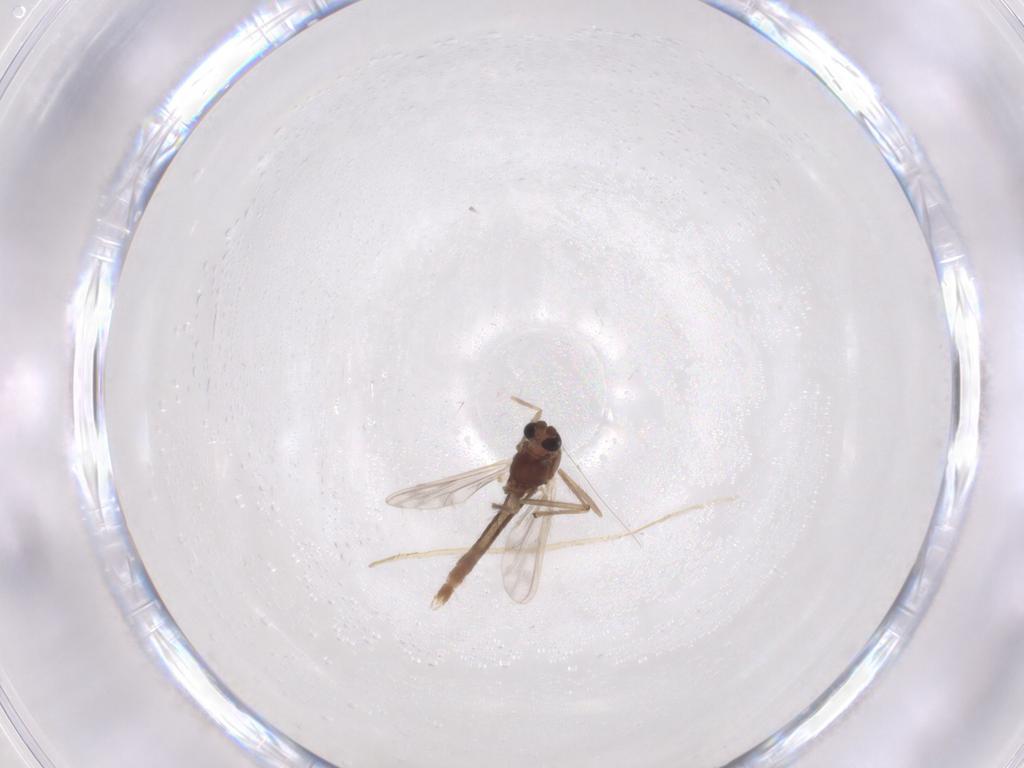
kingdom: Animalia
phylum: Arthropoda
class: Insecta
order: Diptera
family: Chironomidae
